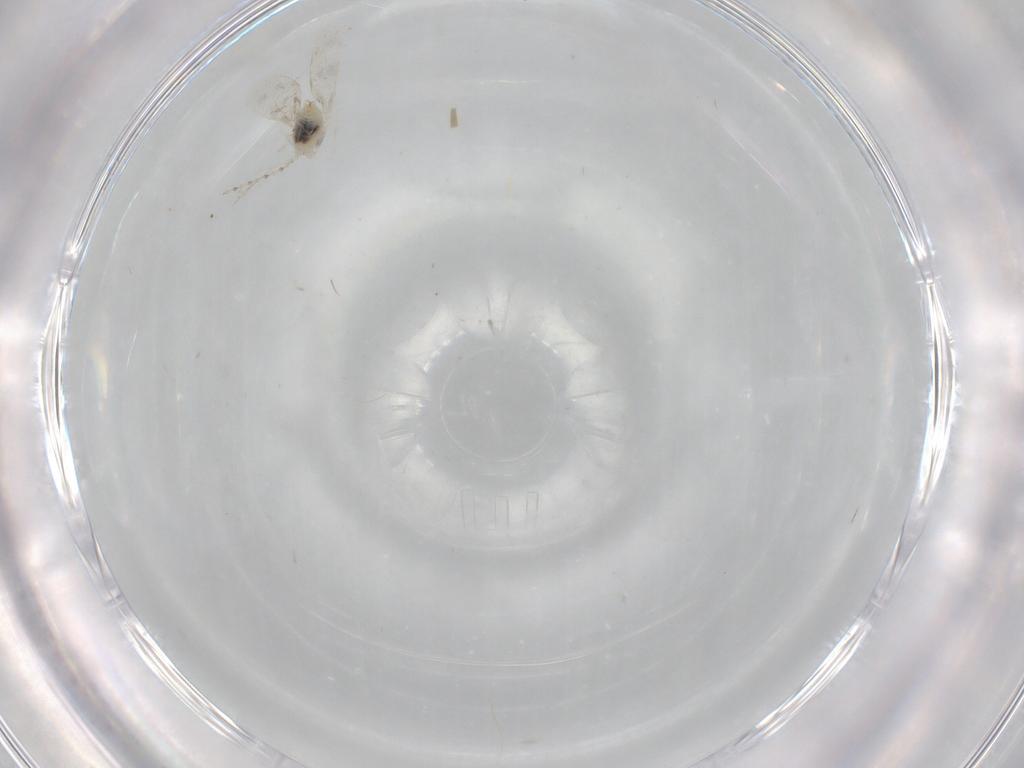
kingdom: Animalia
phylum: Arthropoda
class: Insecta
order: Diptera
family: Cecidomyiidae
